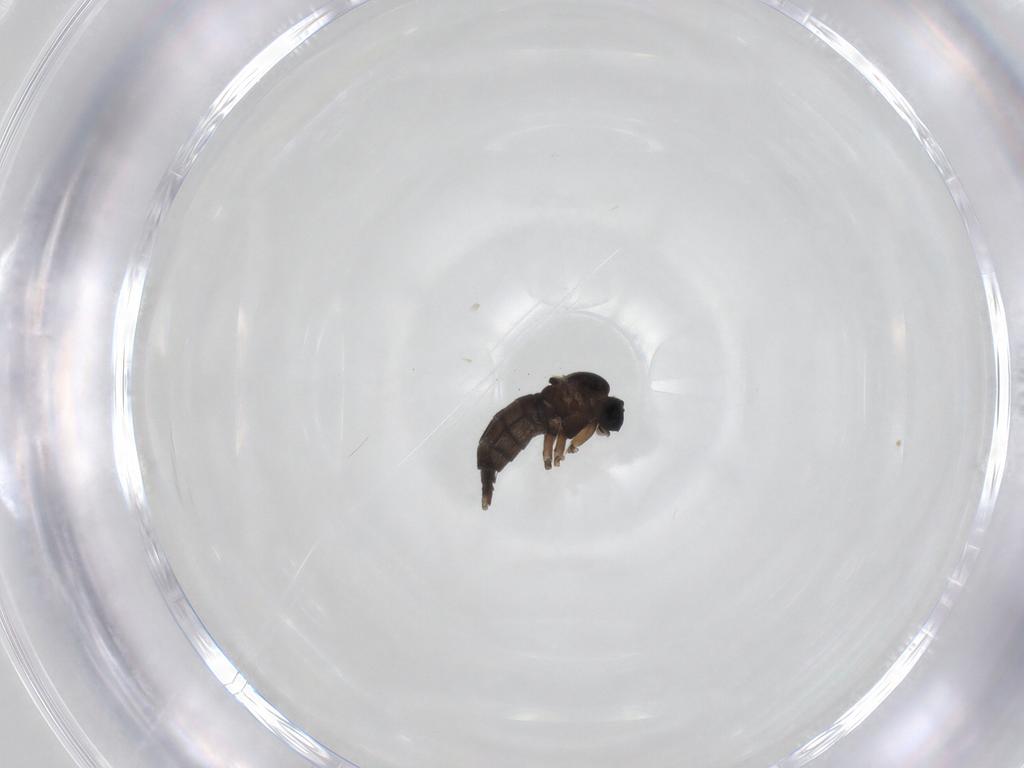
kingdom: Animalia
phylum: Arthropoda
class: Insecta
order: Diptera
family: Sciaridae
